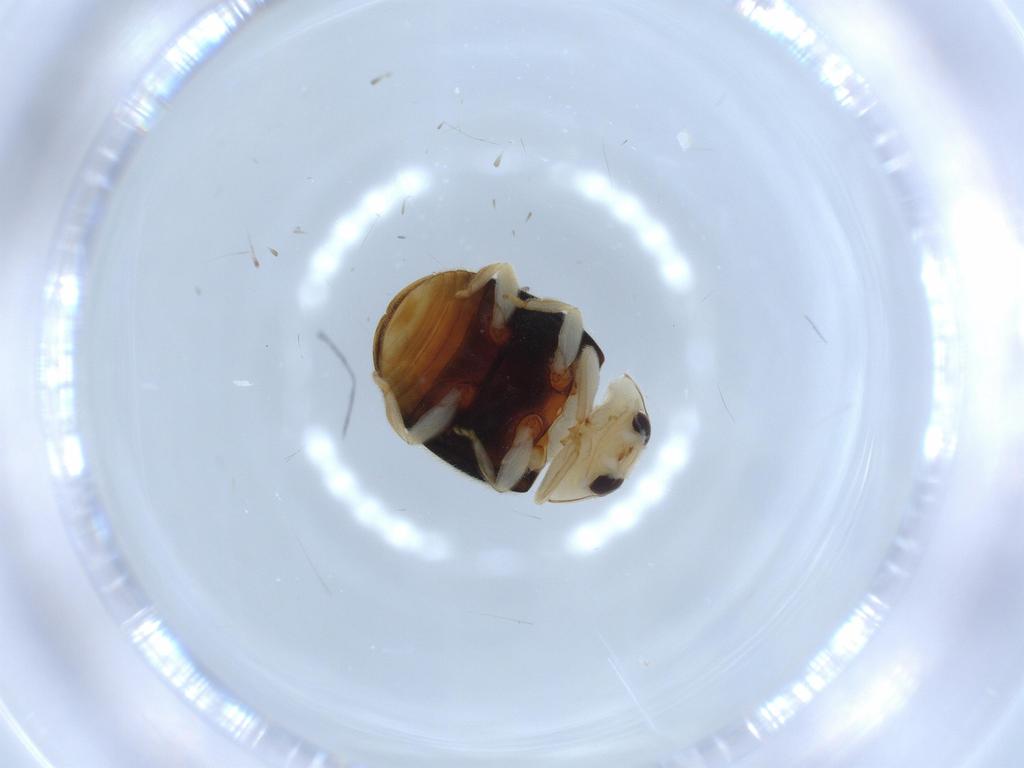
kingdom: Animalia
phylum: Arthropoda
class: Insecta
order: Coleoptera
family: Coccinellidae
